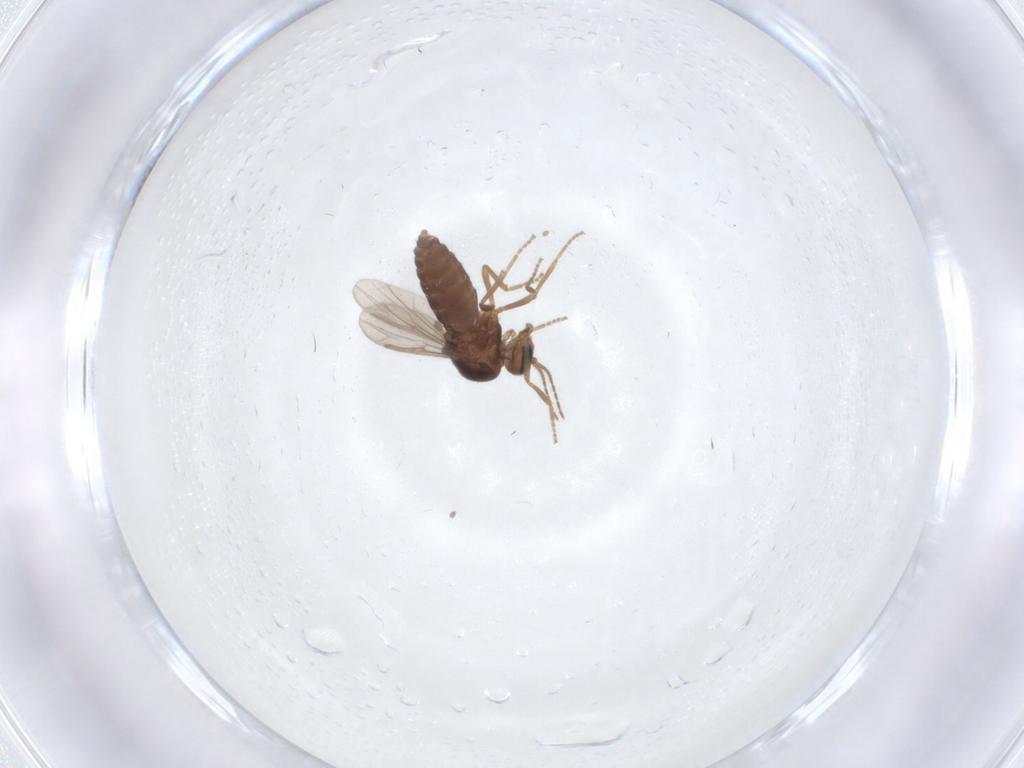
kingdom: Animalia
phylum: Arthropoda
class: Insecta
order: Diptera
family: Ceratopogonidae
